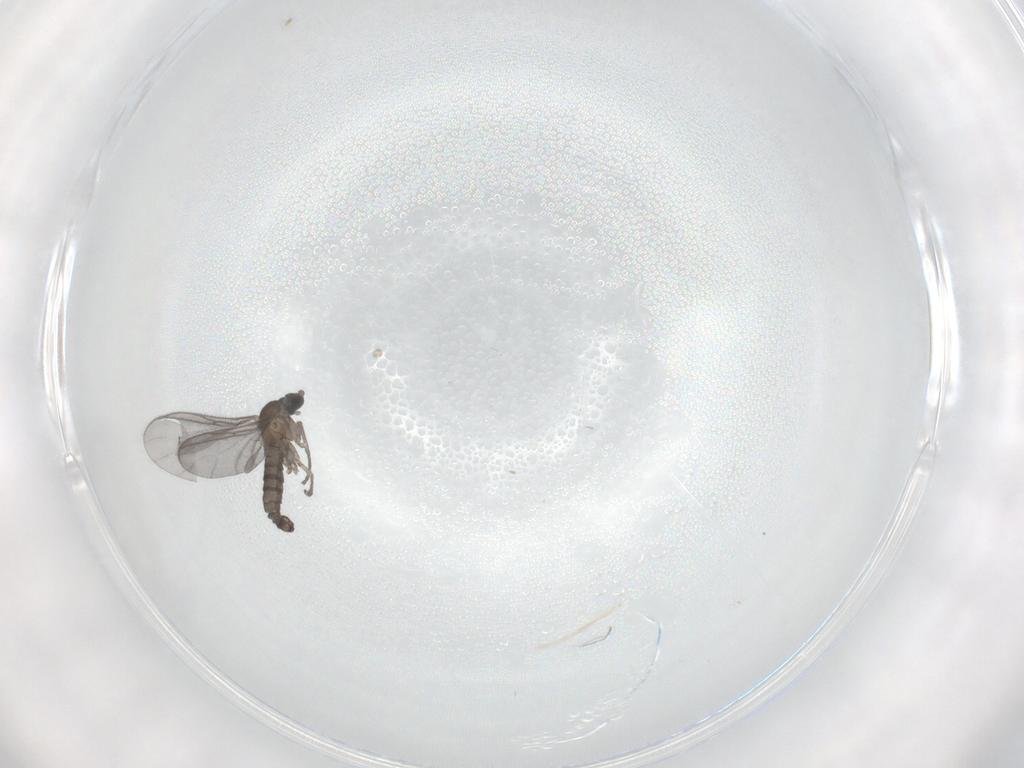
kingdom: Animalia
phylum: Arthropoda
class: Insecta
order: Diptera
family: Sciaridae
